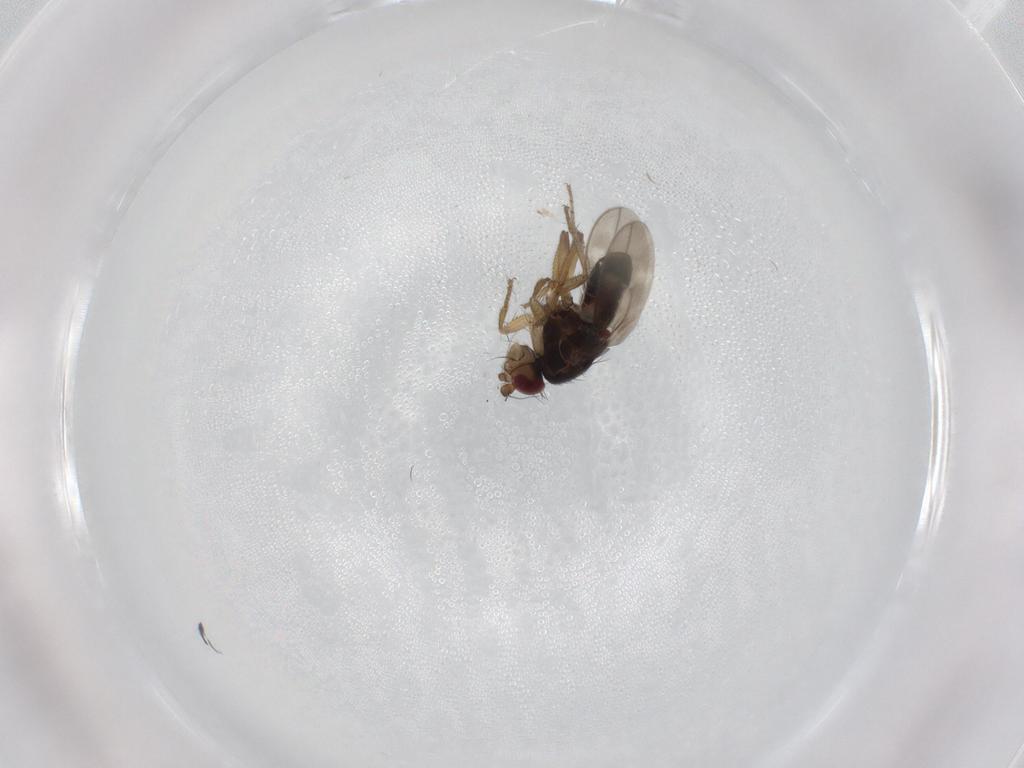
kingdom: Animalia
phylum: Arthropoda
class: Insecta
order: Diptera
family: Sphaeroceridae
